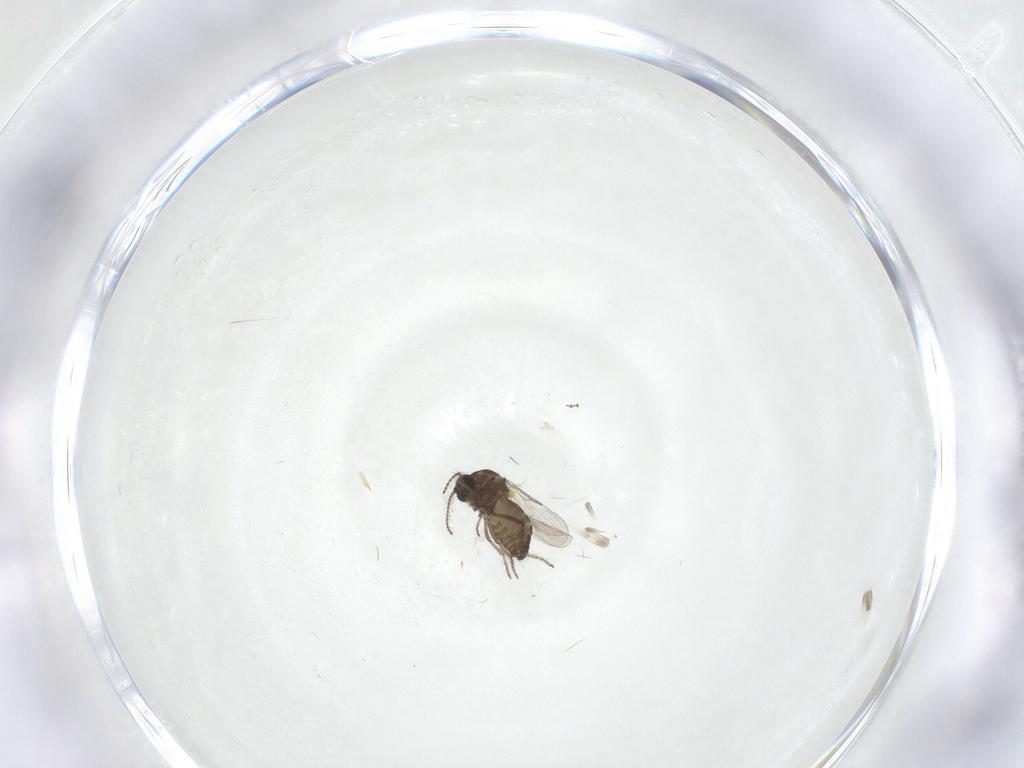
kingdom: Animalia
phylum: Arthropoda
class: Insecta
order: Diptera
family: Ceratopogonidae
